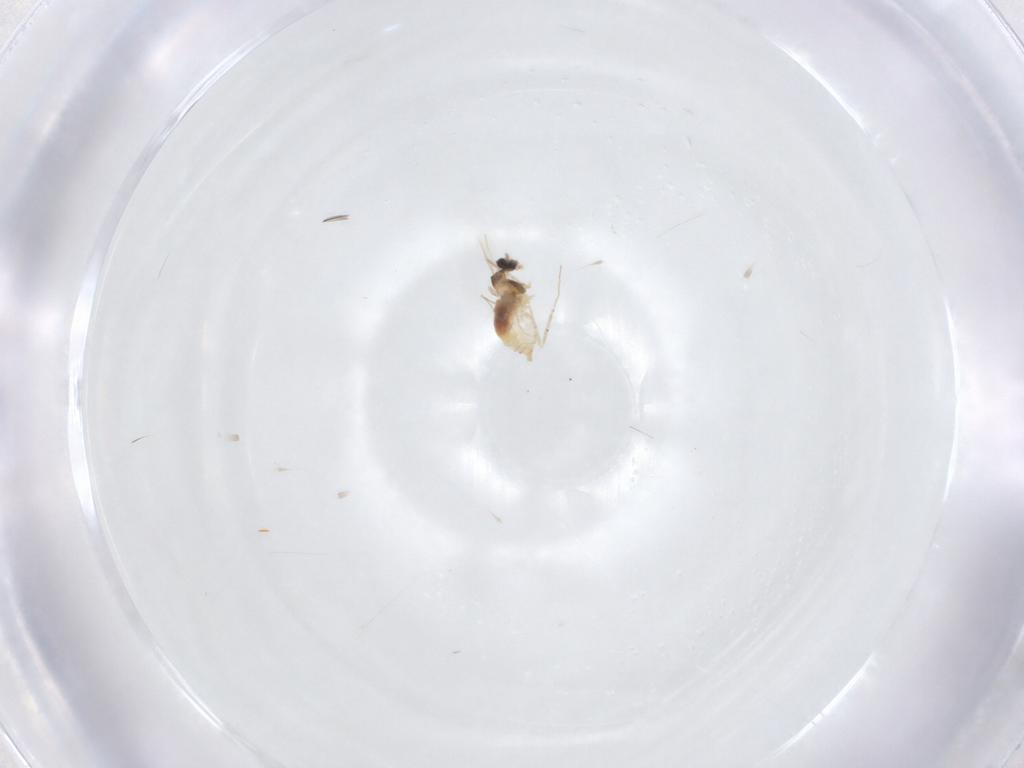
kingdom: Animalia
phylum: Arthropoda
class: Insecta
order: Diptera
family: Cecidomyiidae
